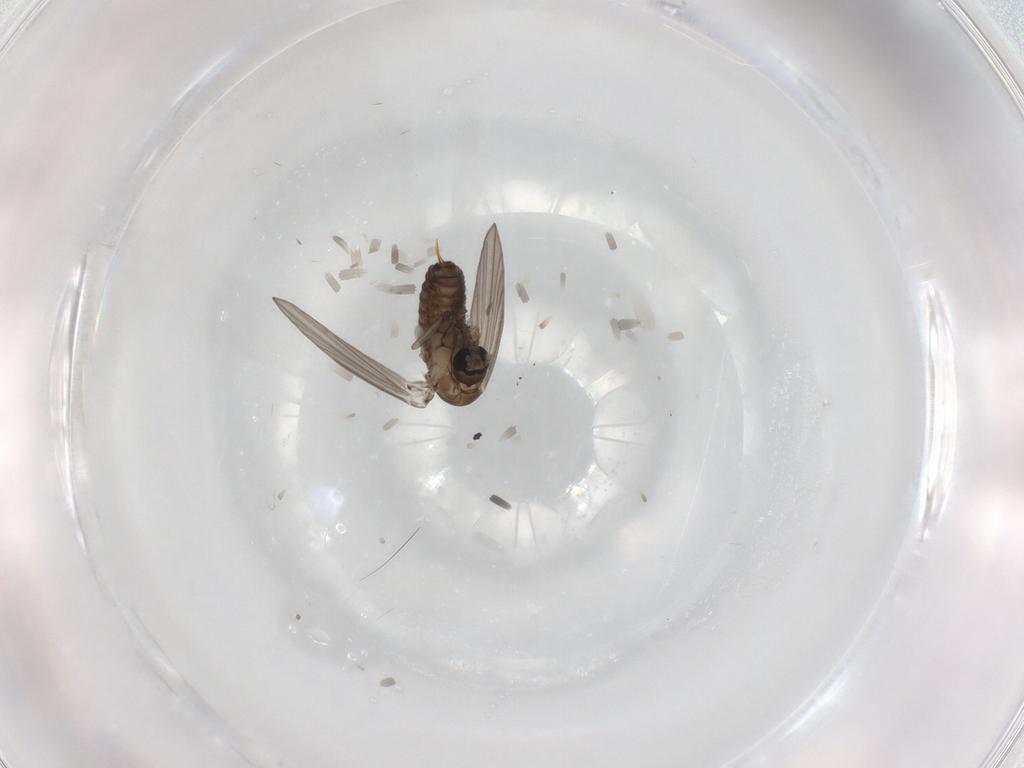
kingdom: Animalia
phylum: Arthropoda
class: Insecta
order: Diptera
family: Psychodidae
